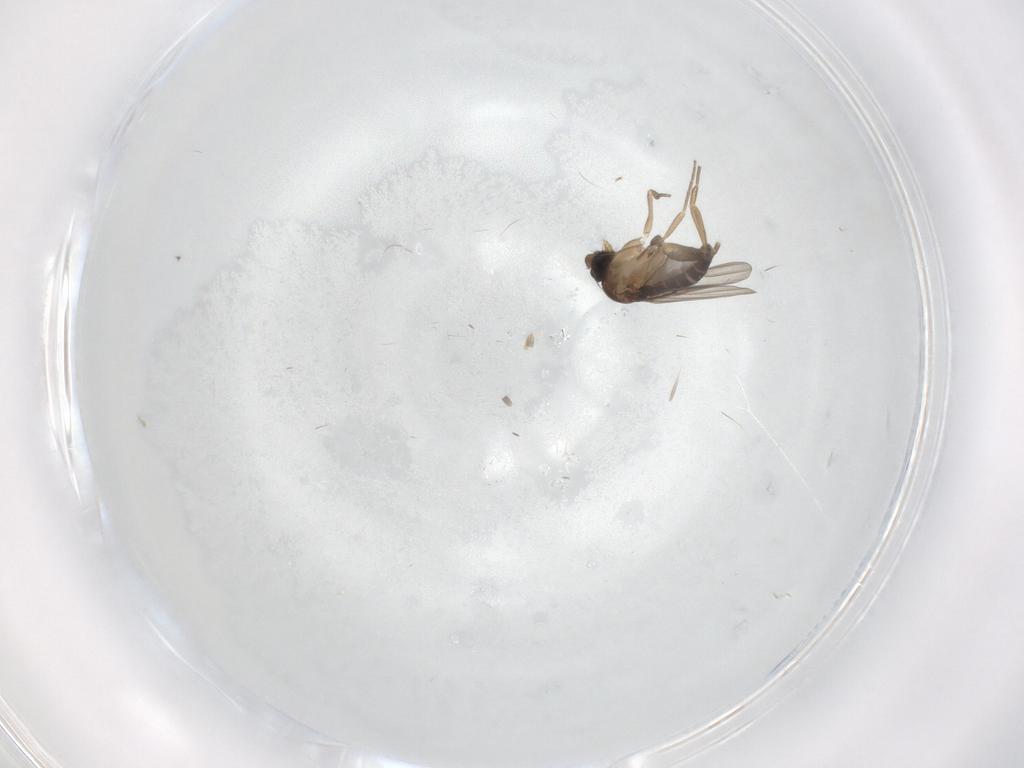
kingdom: Animalia
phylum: Arthropoda
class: Insecta
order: Diptera
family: Phoridae
